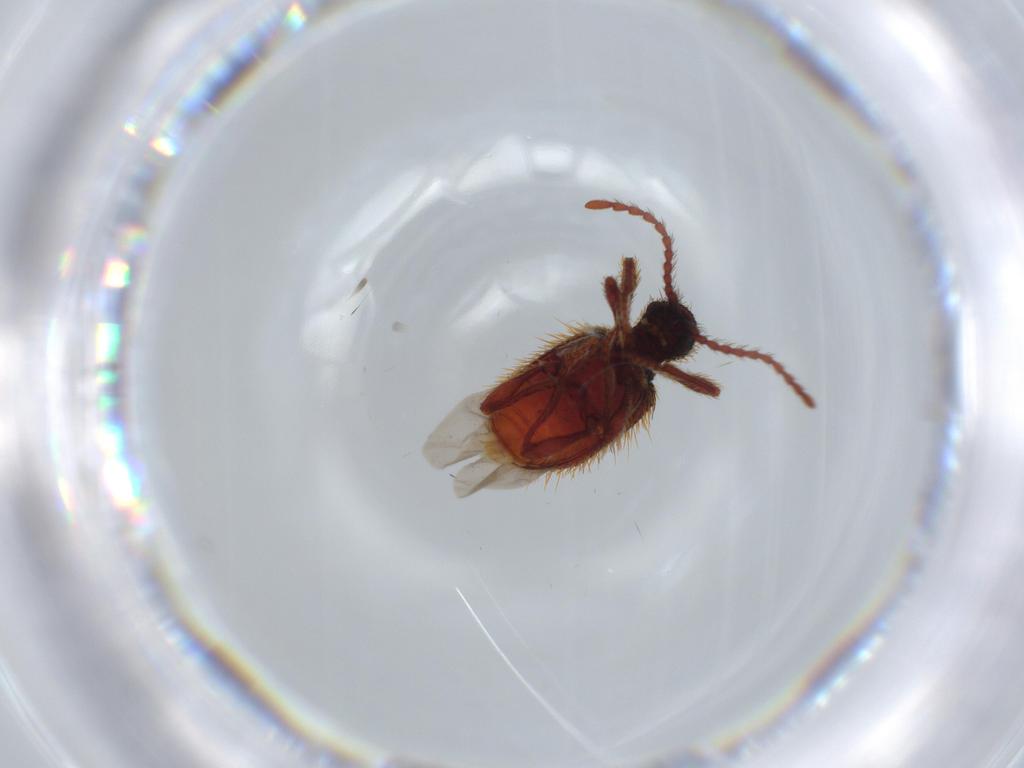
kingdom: Animalia
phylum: Arthropoda
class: Insecta
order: Coleoptera
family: Ptinidae
